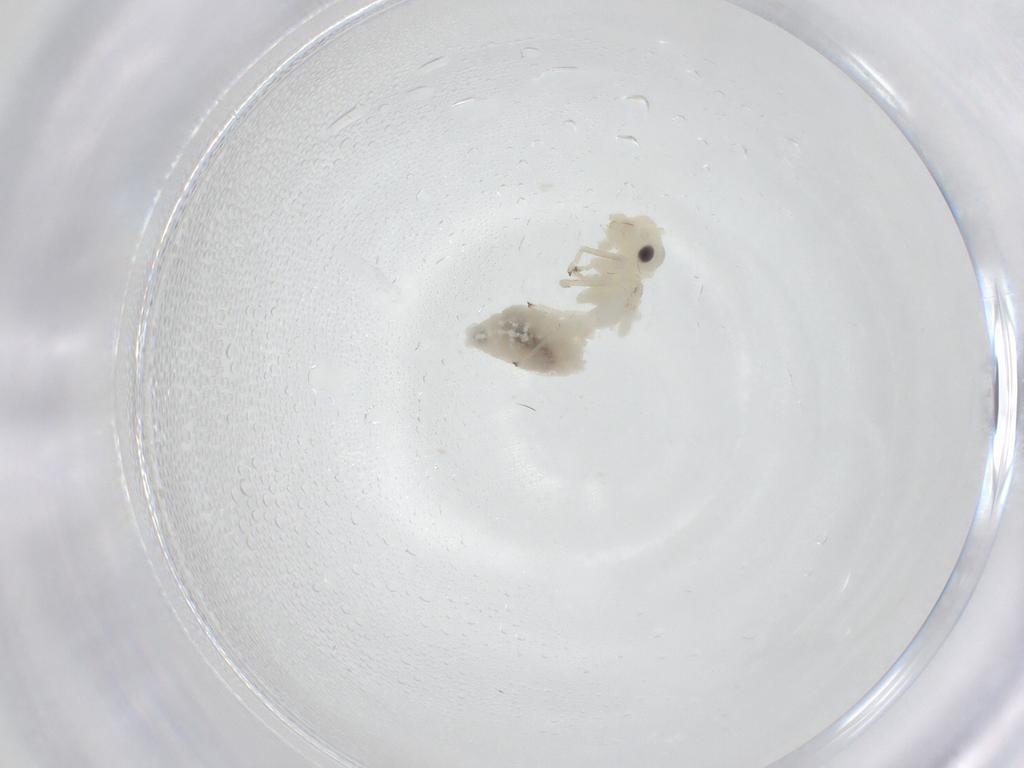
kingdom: Animalia
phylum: Arthropoda
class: Insecta
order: Psocodea
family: Caeciliusidae
